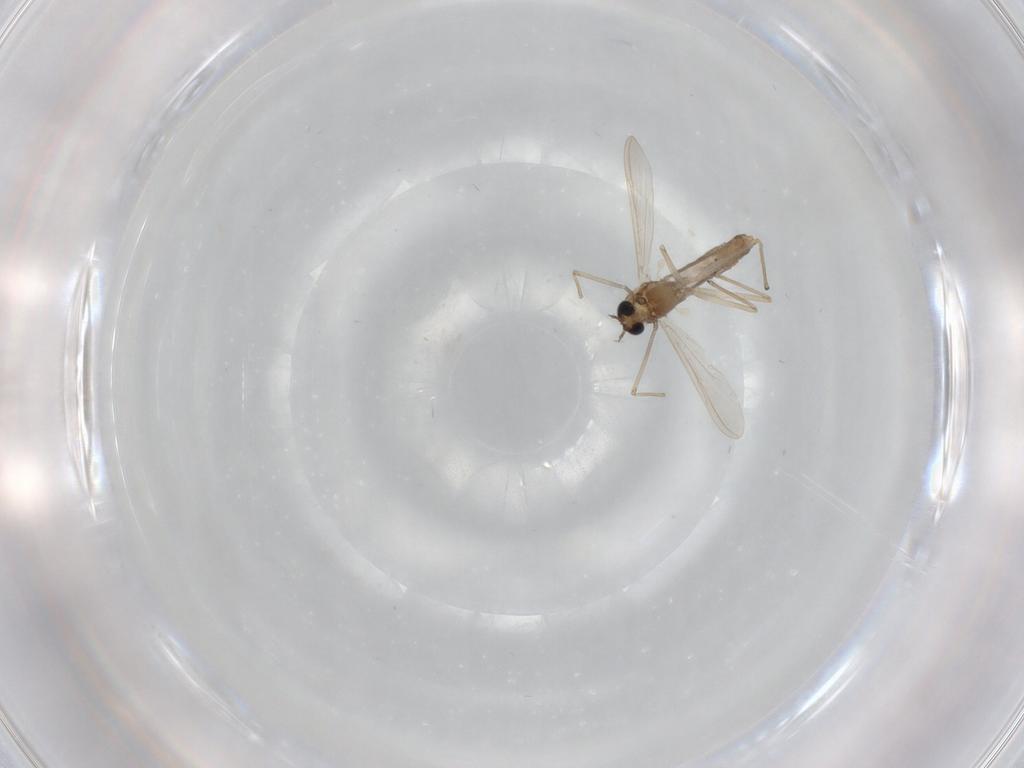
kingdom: Animalia
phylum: Arthropoda
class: Insecta
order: Diptera
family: Chironomidae
